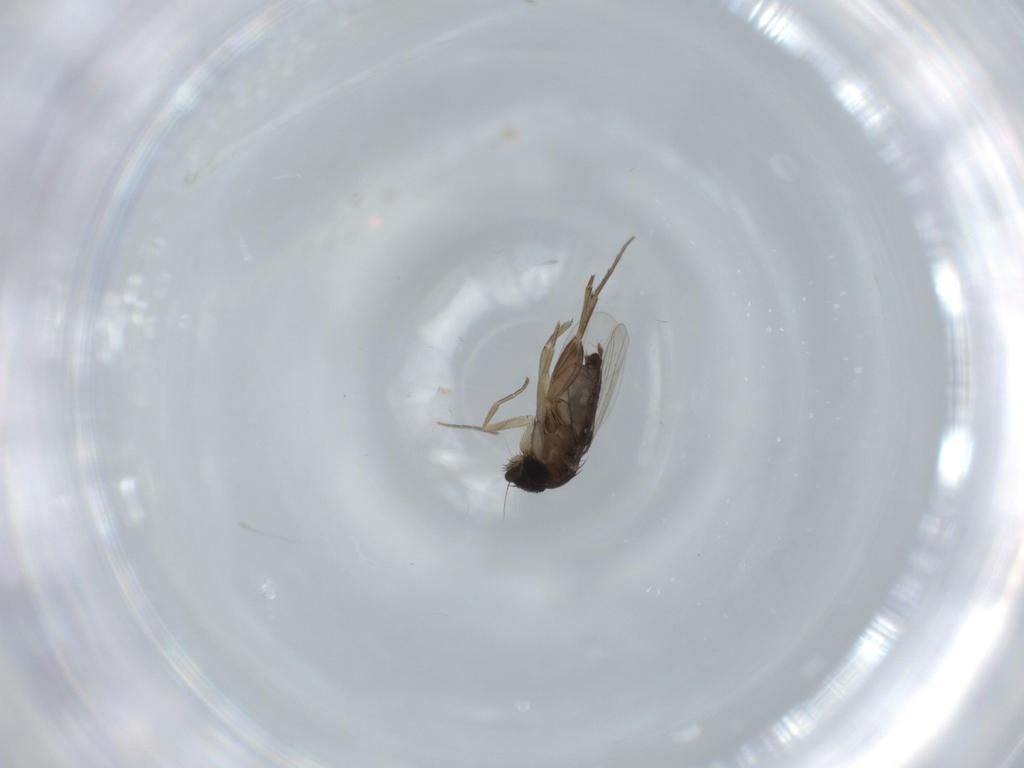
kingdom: Animalia
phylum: Arthropoda
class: Insecta
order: Diptera
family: Phoridae
